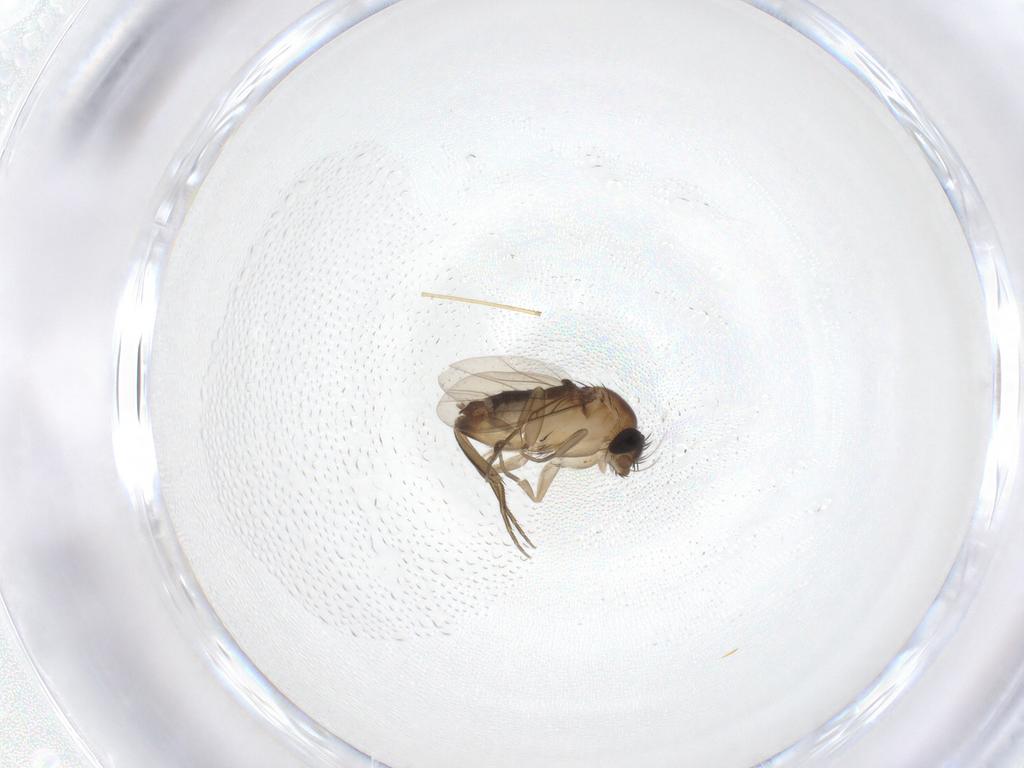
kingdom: Animalia
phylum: Arthropoda
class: Insecta
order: Diptera
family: Phoridae
